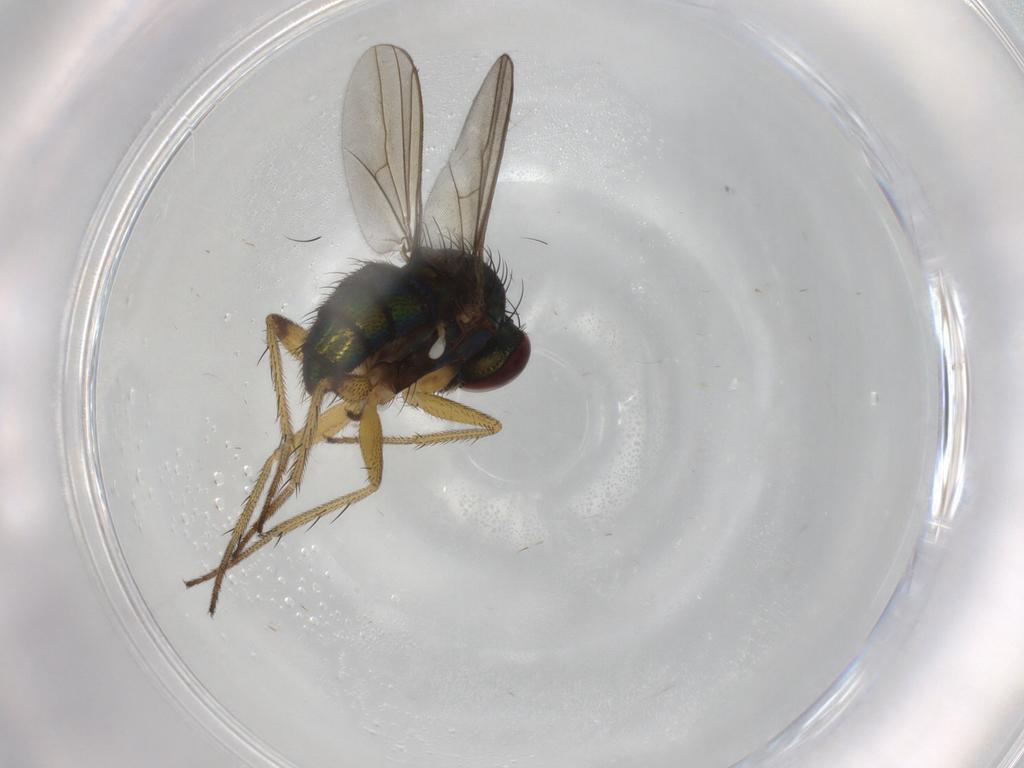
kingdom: Animalia
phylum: Arthropoda
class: Insecta
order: Diptera
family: Dolichopodidae
